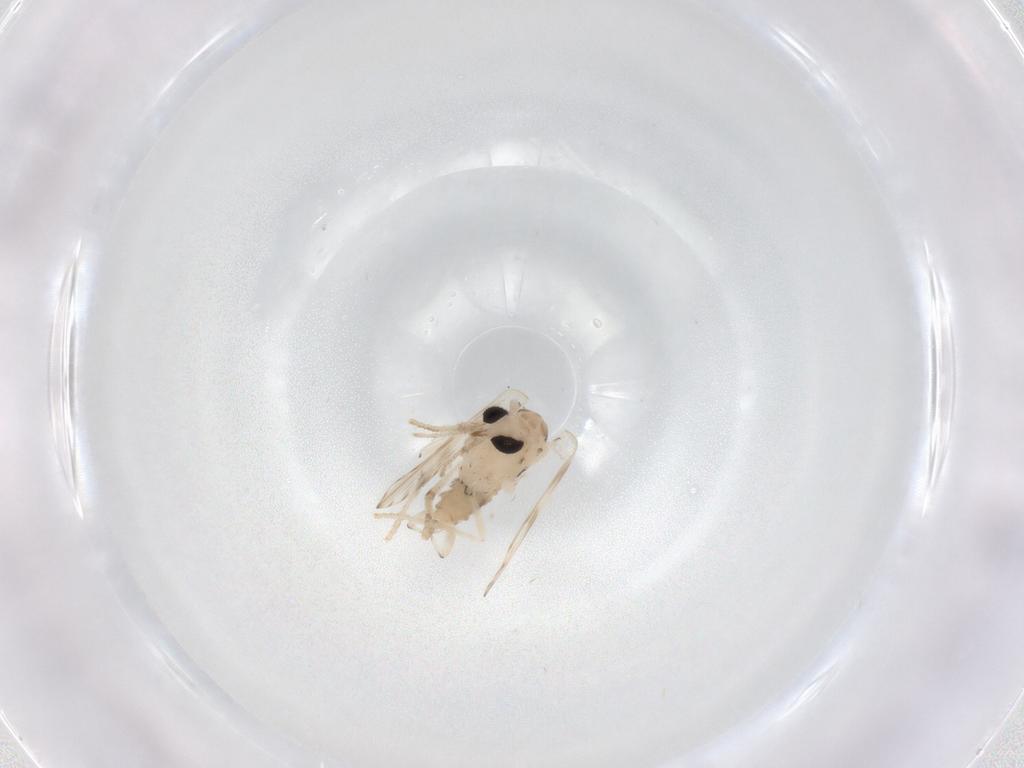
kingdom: Animalia
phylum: Arthropoda
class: Insecta
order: Diptera
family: Psychodidae
